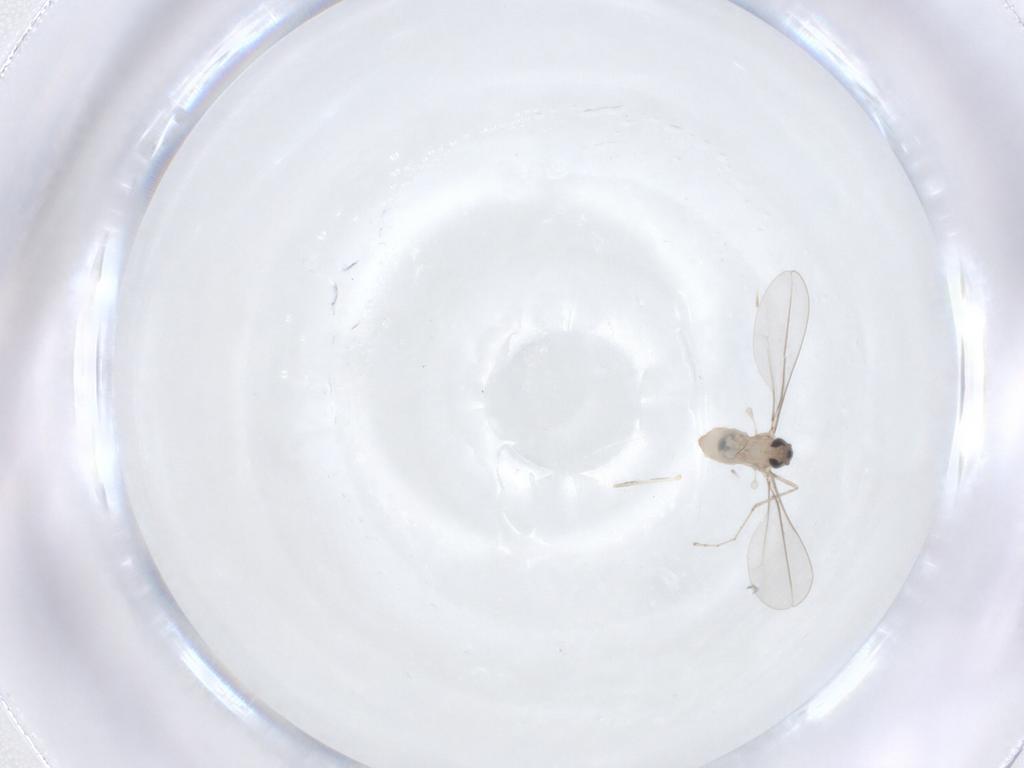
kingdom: Animalia
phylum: Arthropoda
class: Insecta
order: Diptera
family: Cecidomyiidae
